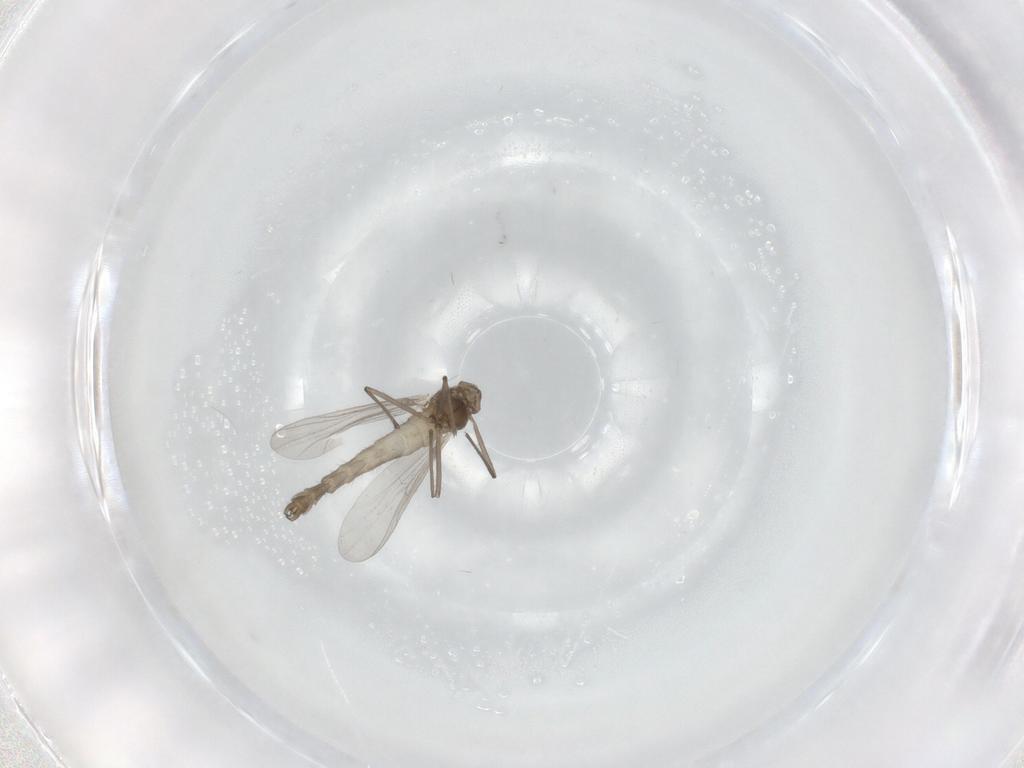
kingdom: Animalia
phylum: Arthropoda
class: Insecta
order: Diptera
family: Chironomidae
